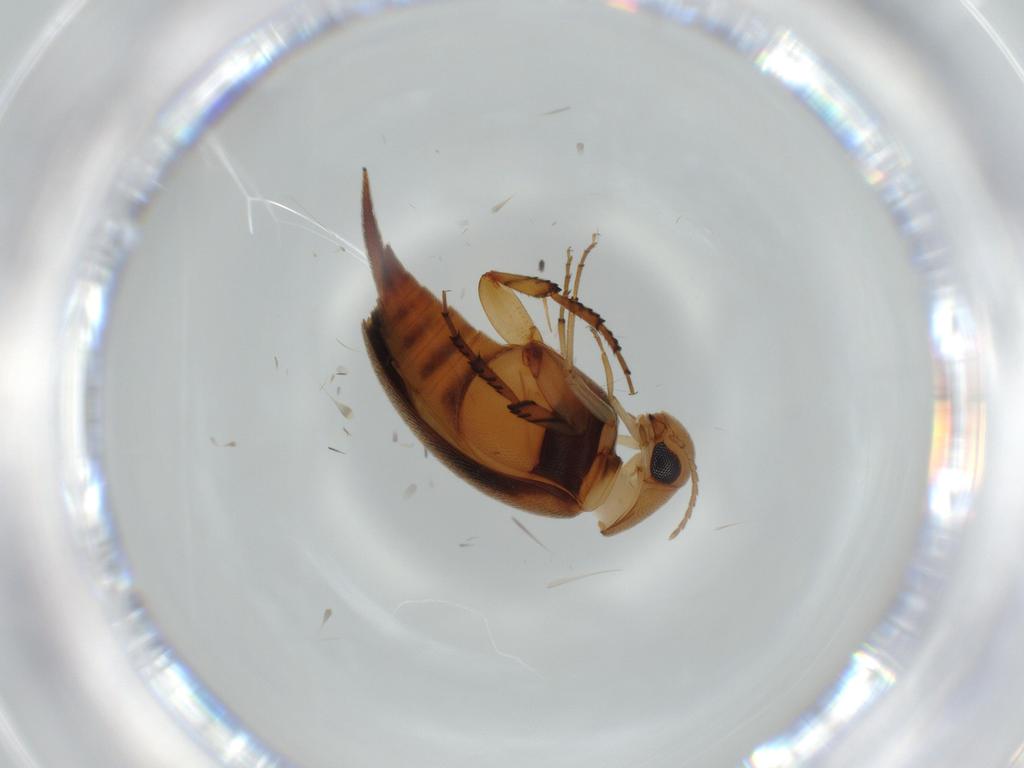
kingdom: Animalia
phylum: Arthropoda
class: Insecta
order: Coleoptera
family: Mordellidae
